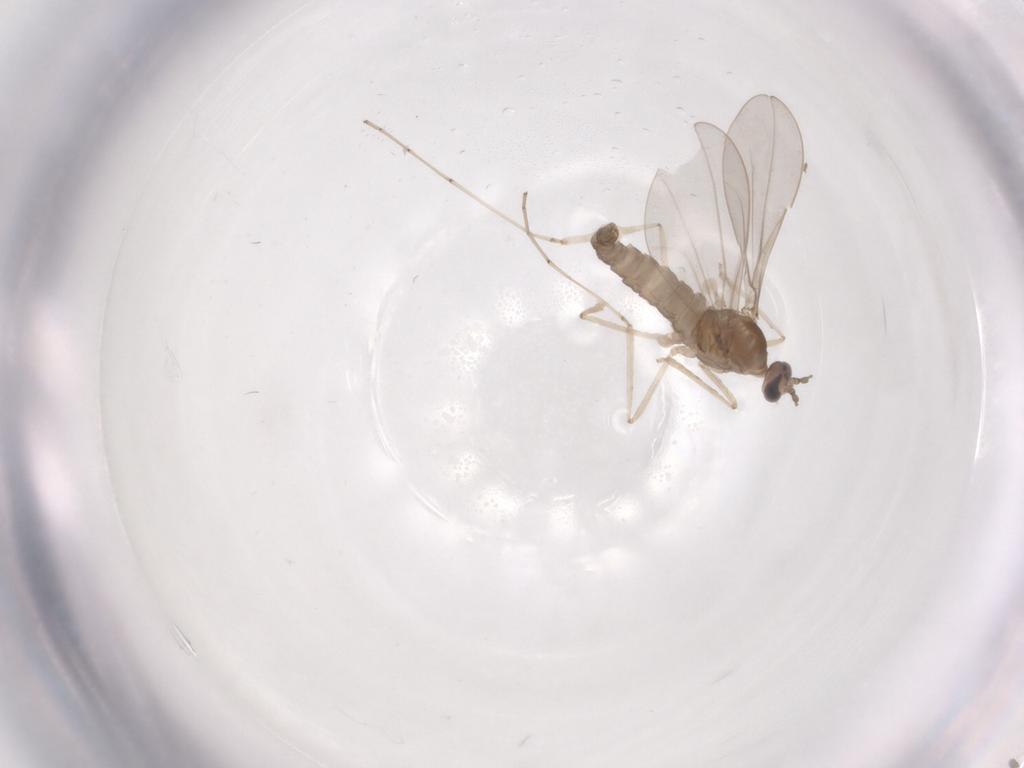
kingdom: Animalia
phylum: Arthropoda
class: Insecta
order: Diptera
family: Cecidomyiidae
